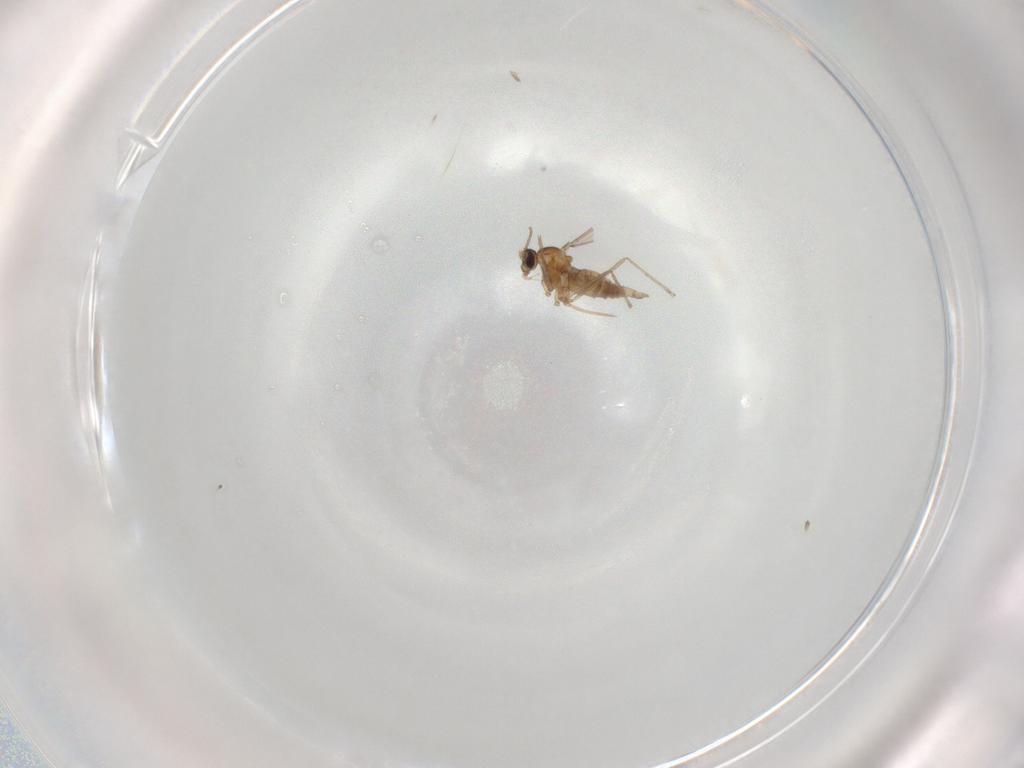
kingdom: Animalia
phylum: Arthropoda
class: Insecta
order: Diptera
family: Cecidomyiidae
